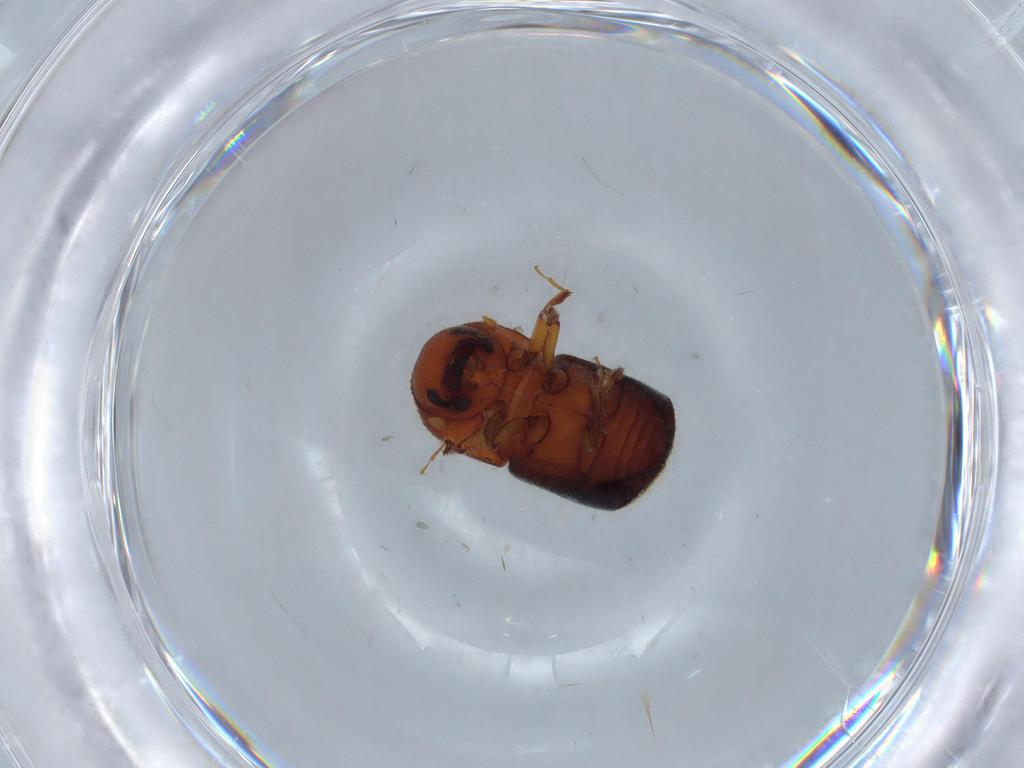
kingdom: Animalia
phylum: Arthropoda
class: Insecta
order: Coleoptera
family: Curculionidae
